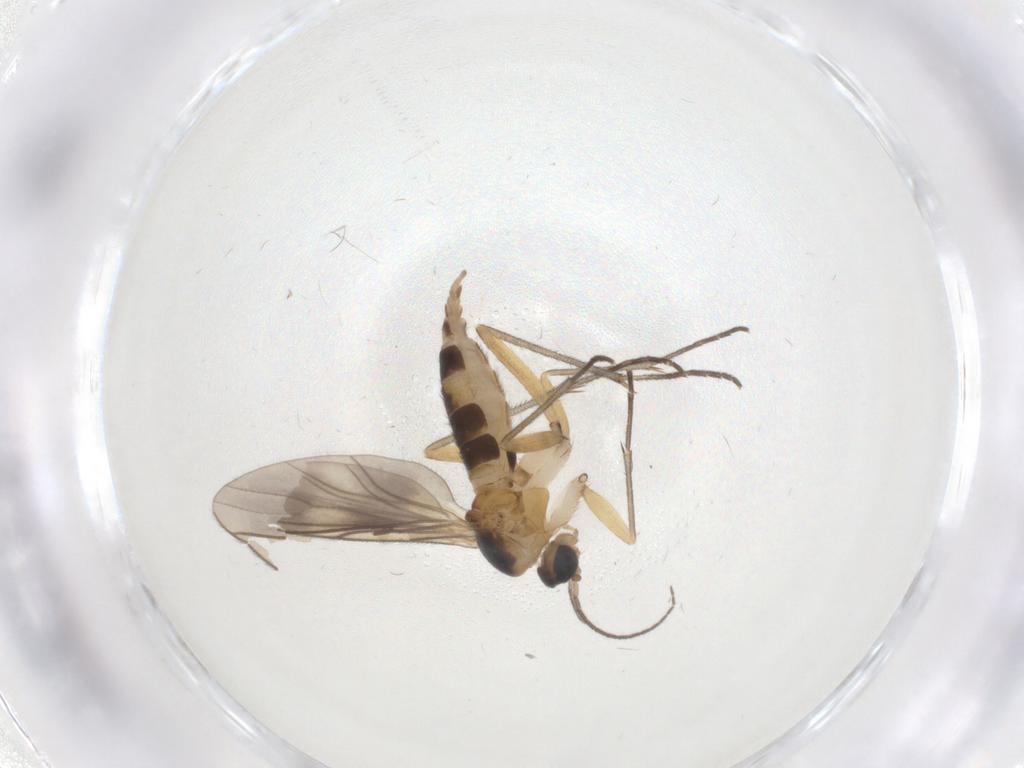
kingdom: Animalia
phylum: Arthropoda
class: Insecta
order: Diptera
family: Sciaridae
